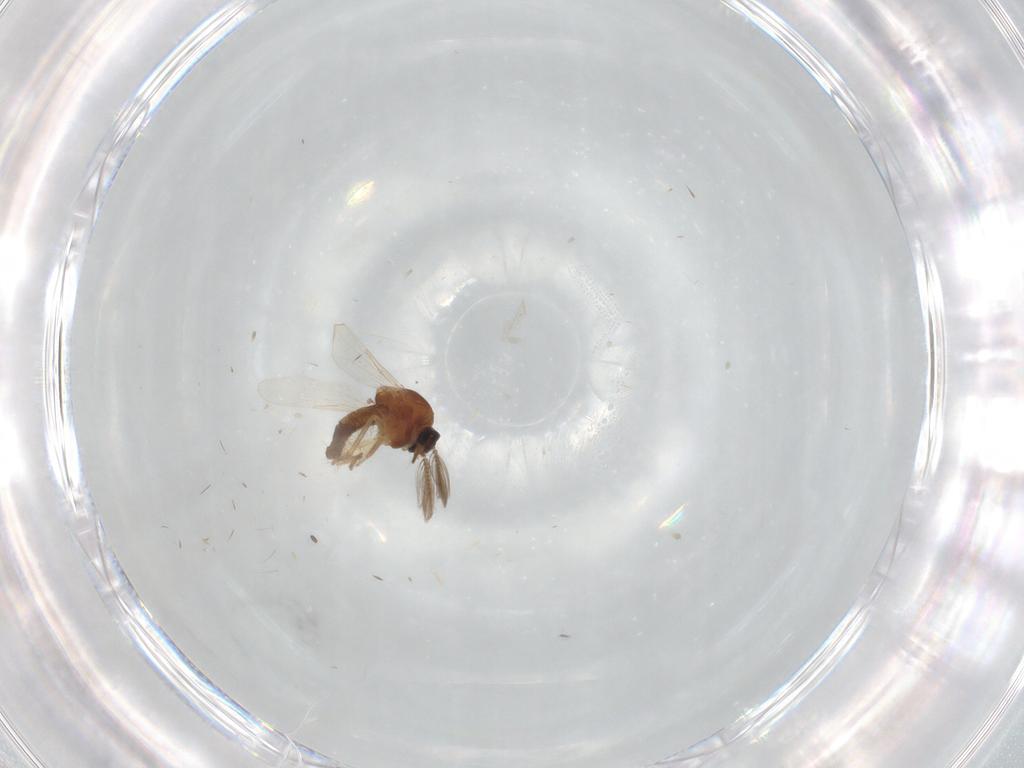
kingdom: Animalia
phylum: Arthropoda
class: Insecta
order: Diptera
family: Ceratopogonidae
